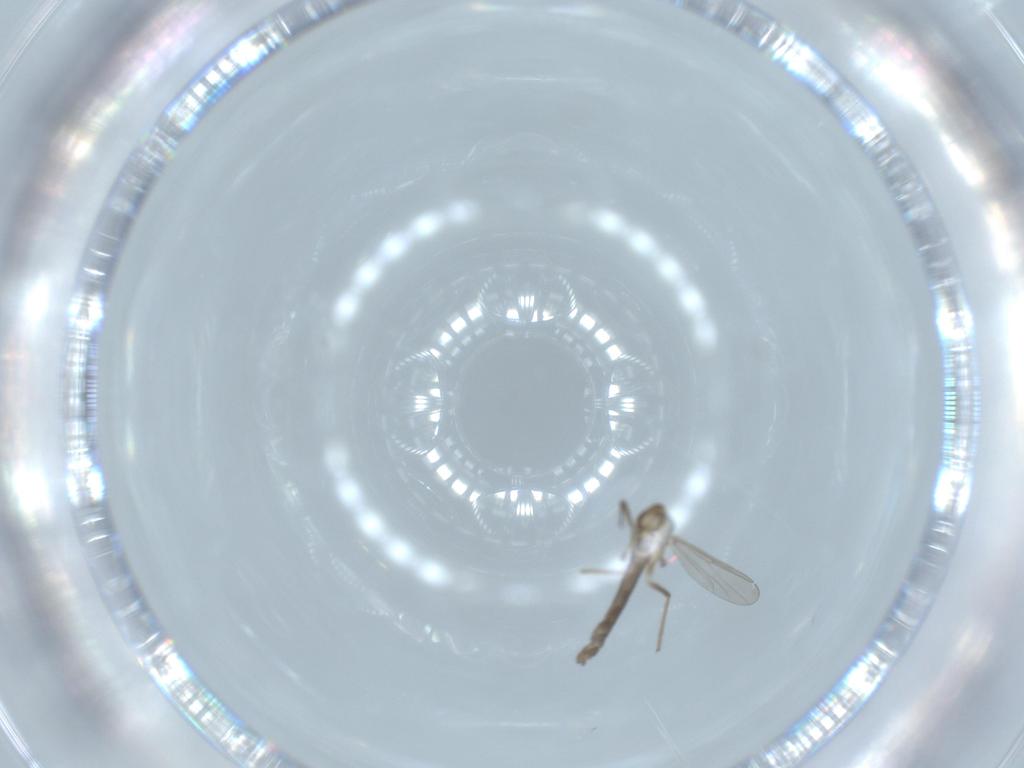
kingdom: Animalia
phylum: Arthropoda
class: Insecta
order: Diptera
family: Chironomidae
